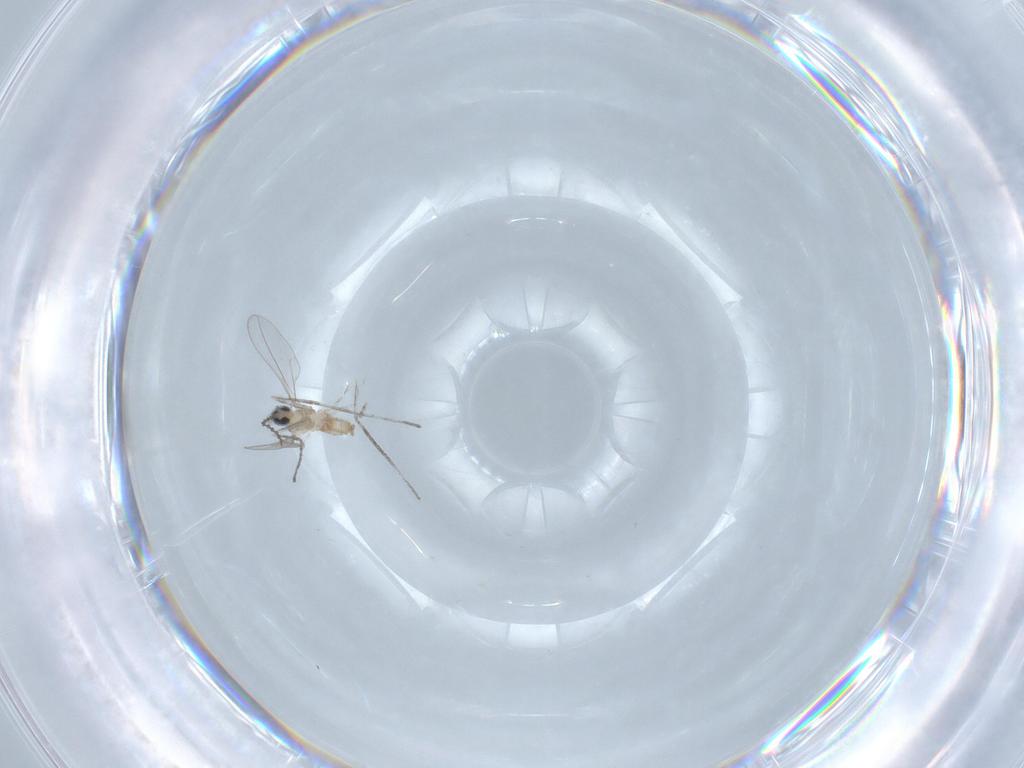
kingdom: Animalia
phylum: Arthropoda
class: Insecta
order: Diptera
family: Cecidomyiidae
